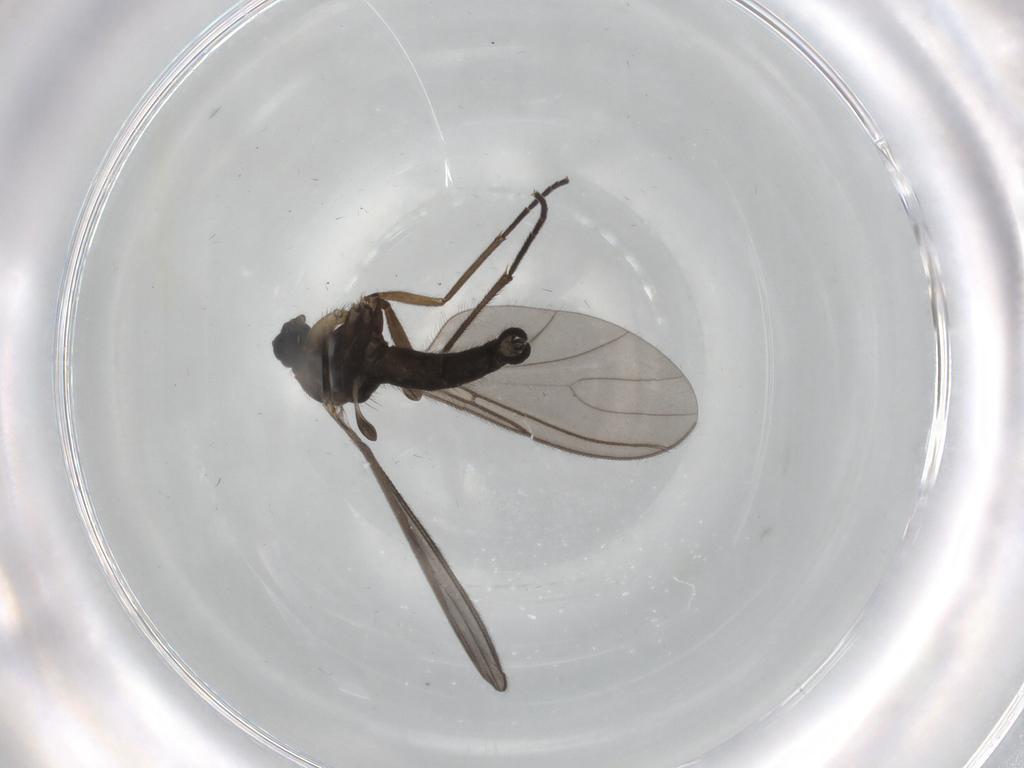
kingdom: Animalia
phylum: Arthropoda
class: Insecta
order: Diptera
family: Sciaridae
